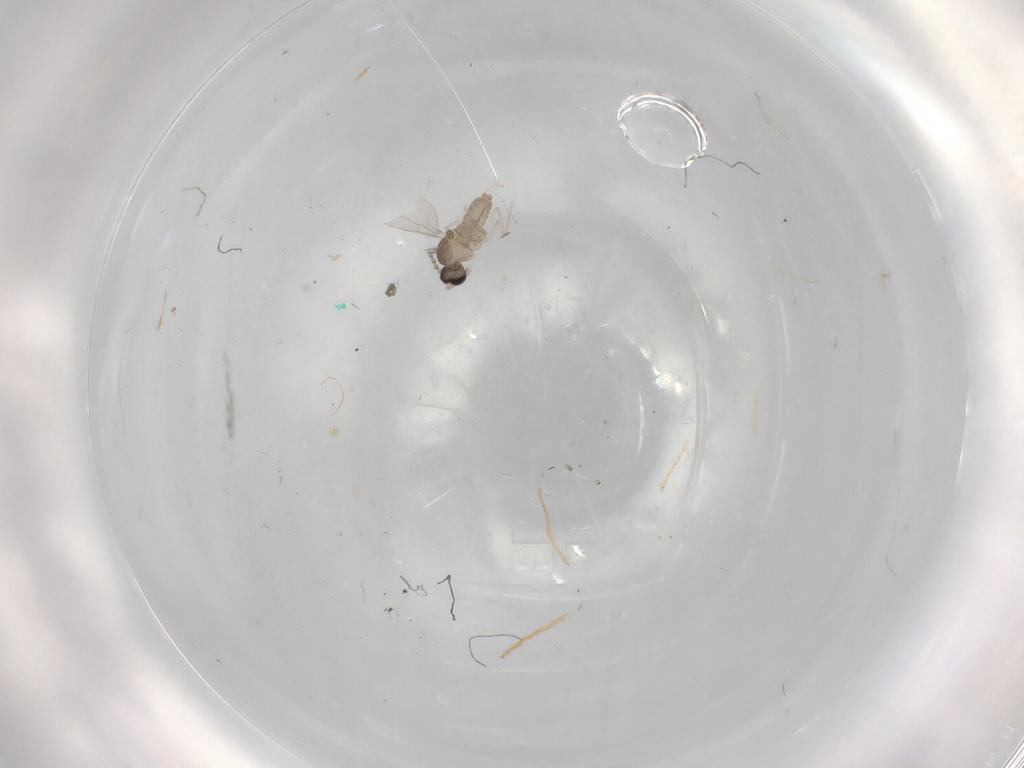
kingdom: Animalia
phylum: Arthropoda
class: Insecta
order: Diptera
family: Cecidomyiidae
